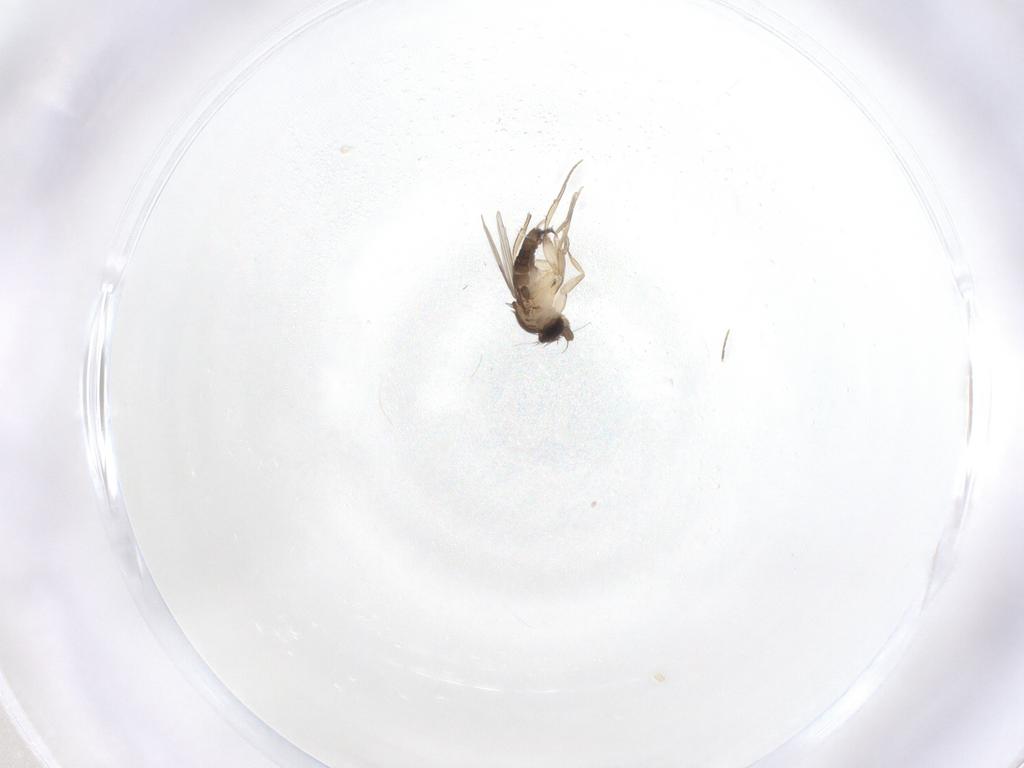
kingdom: Animalia
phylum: Arthropoda
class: Insecta
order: Diptera
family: Phoridae
